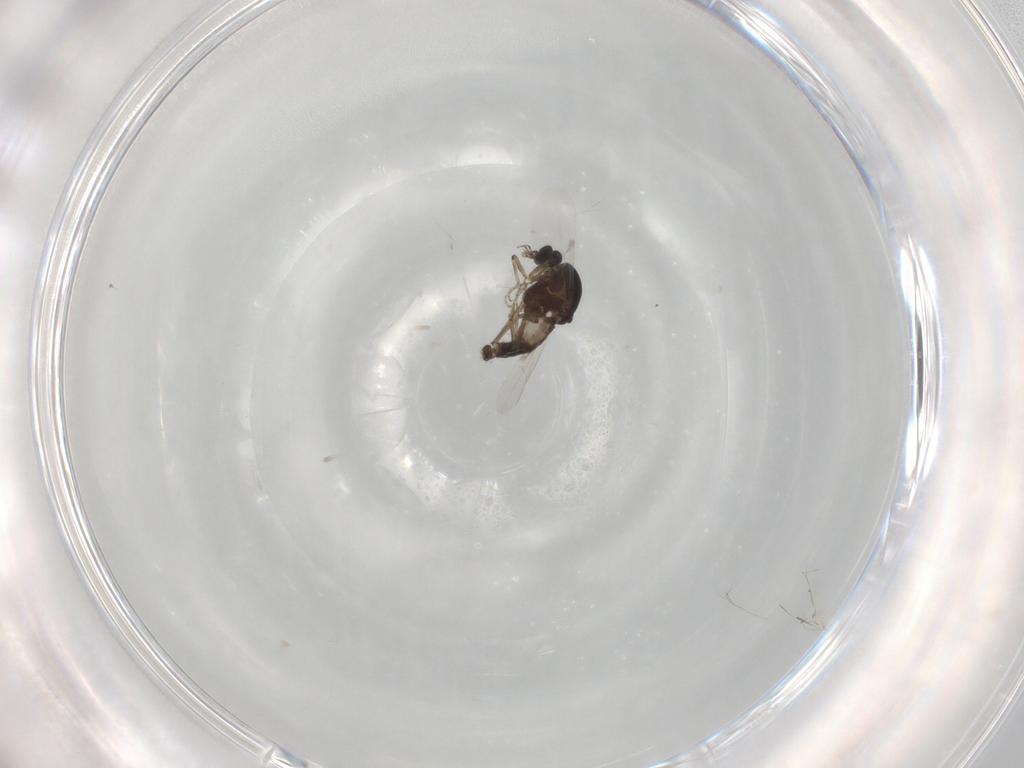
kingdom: Animalia
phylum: Arthropoda
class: Insecta
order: Diptera
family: Ceratopogonidae
